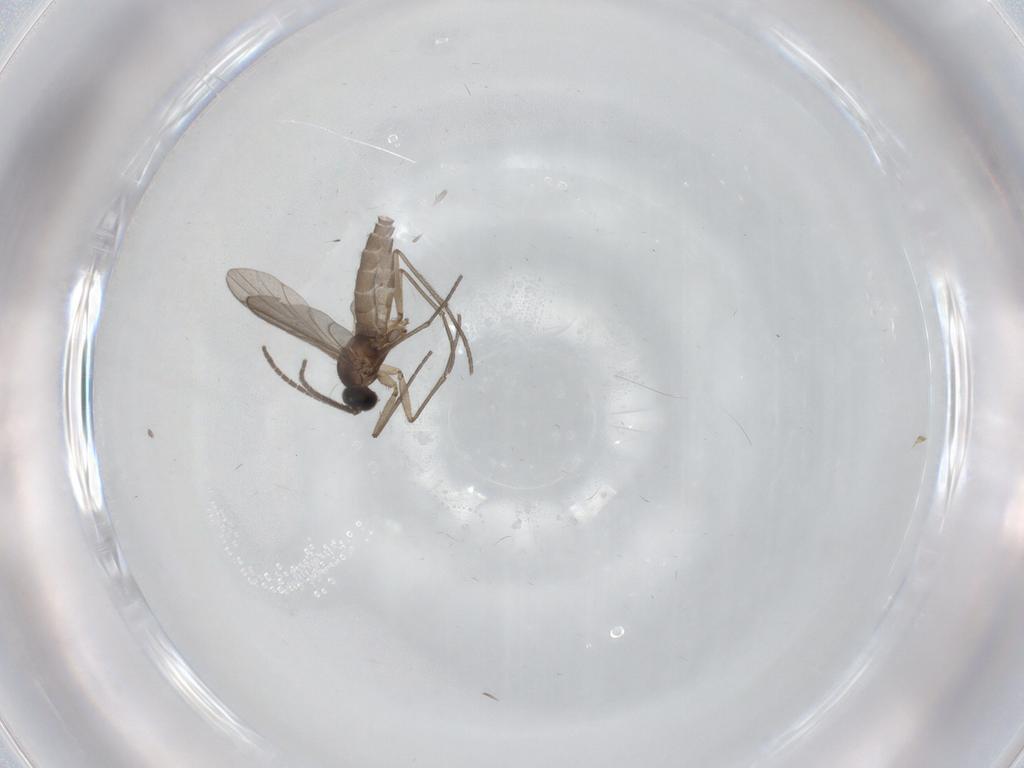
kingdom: Animalia
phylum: Arthropoda
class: Insecta
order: Diptera
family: Sciaridae
